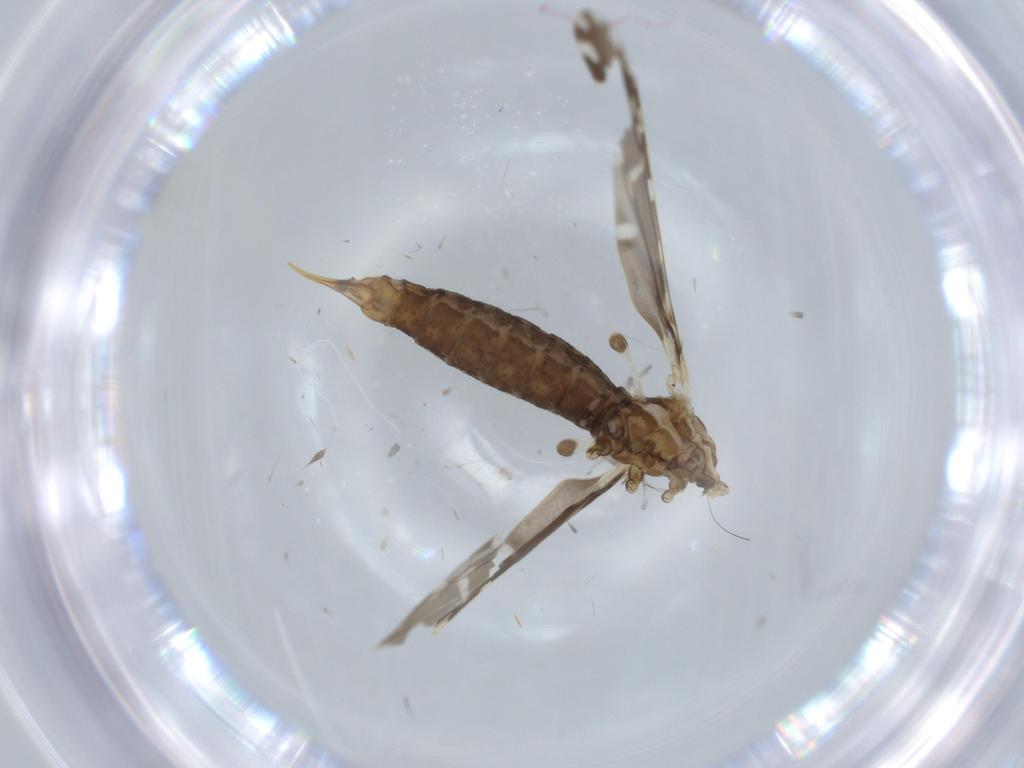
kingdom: Animalia
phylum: Arthropoda
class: Insecta
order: Diptera
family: Limoniidae
